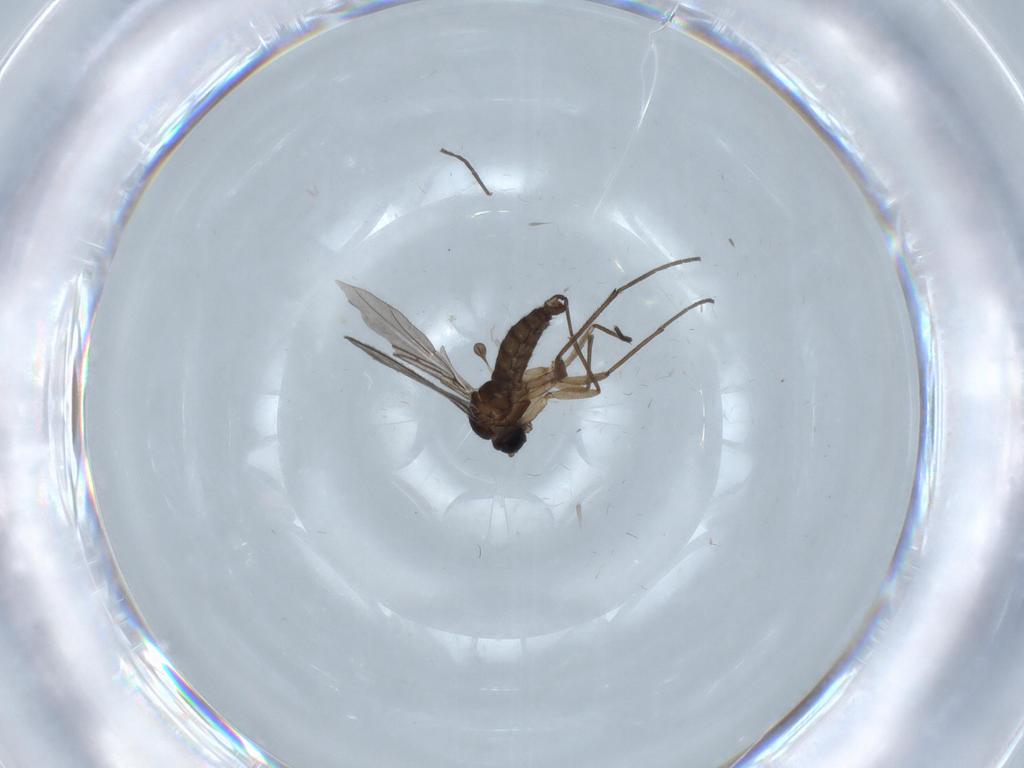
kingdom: Animalia
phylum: Arthropoda
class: Insecta
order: Diptera
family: Sciaridae
